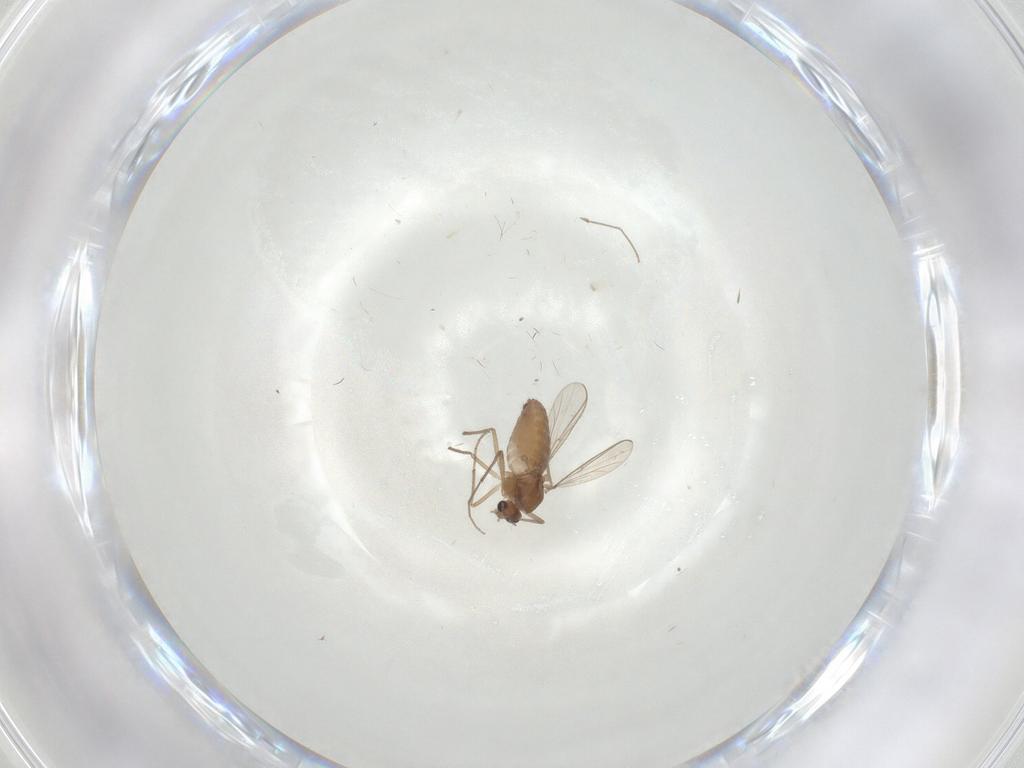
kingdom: Animalia
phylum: Arthropoda
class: Insecta
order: Diptera
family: Chironomidae
